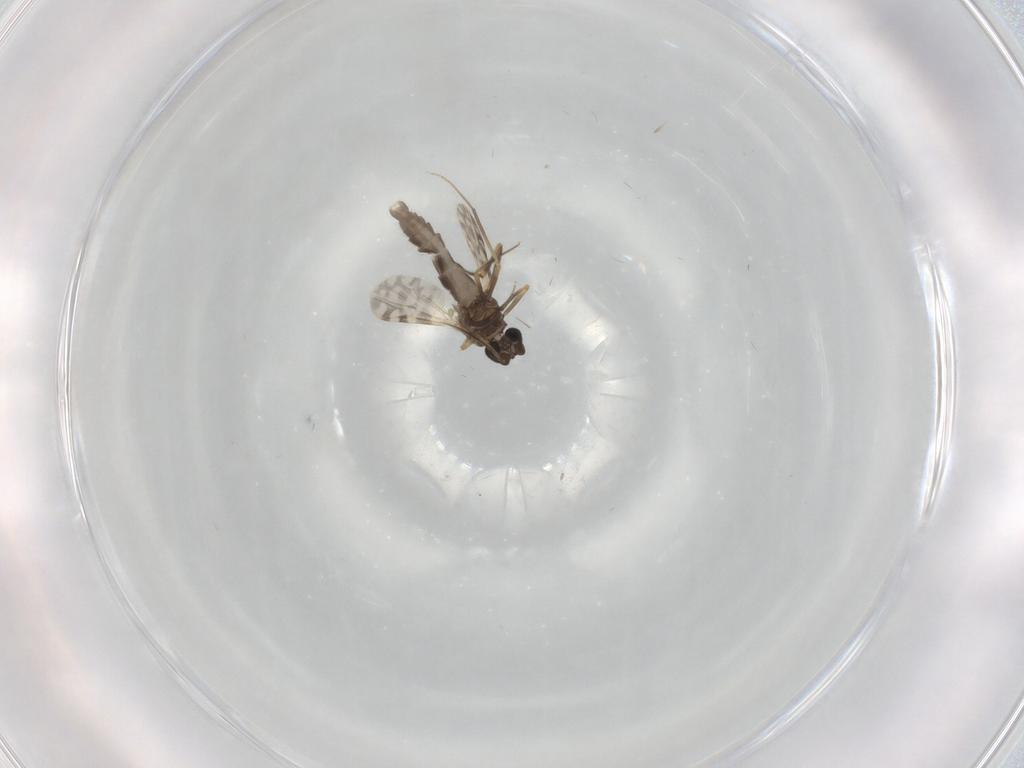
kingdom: Animalia
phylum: Arthropoda
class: Insecta
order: Diptera
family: Ceratopogonidae
